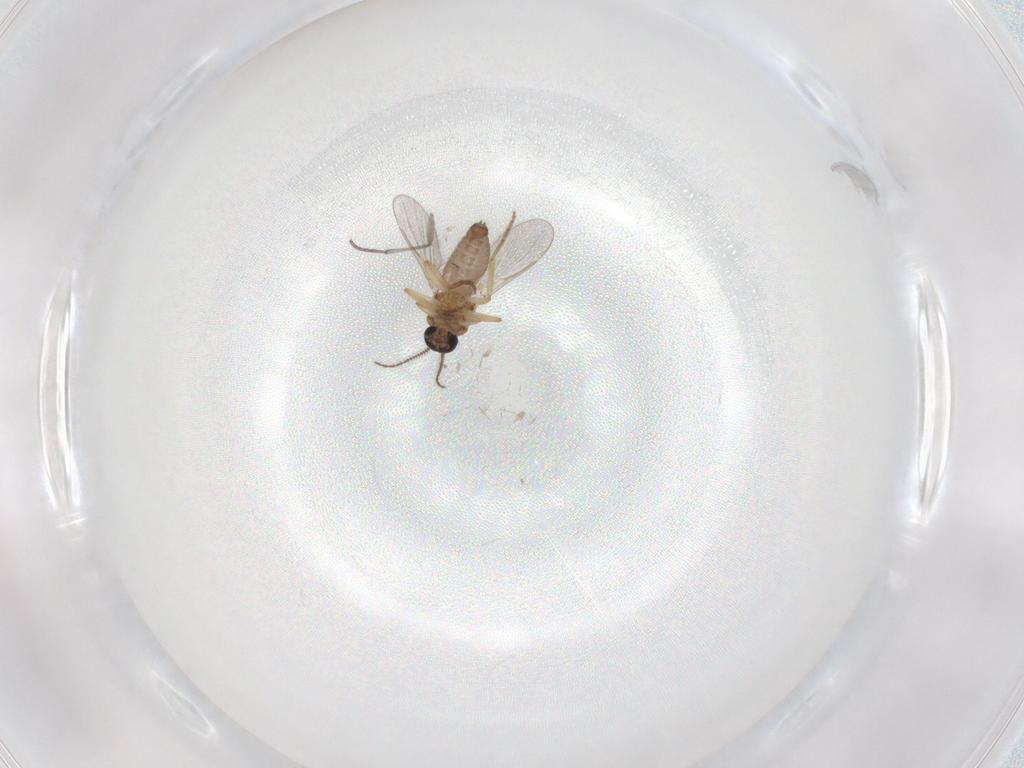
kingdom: Animalia
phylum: Arthropoda
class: Insecta
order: Diptera
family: Sciaridae
